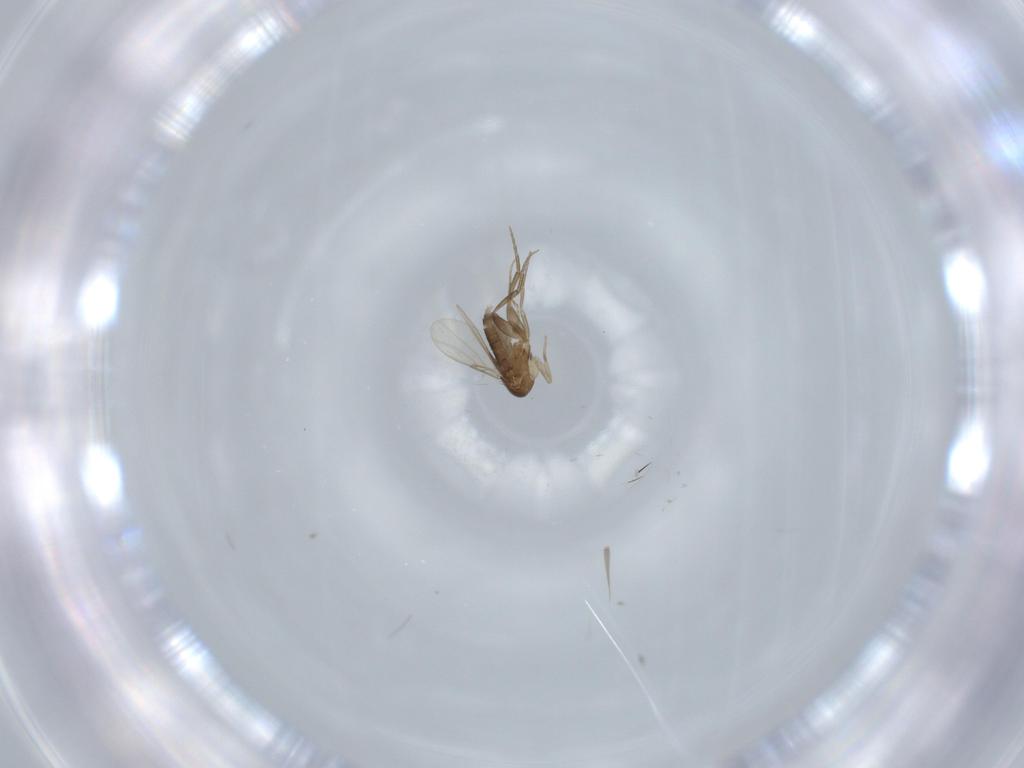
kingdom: Animalia
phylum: Arthropoda
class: Insecta
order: Diptera
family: Phoridae
